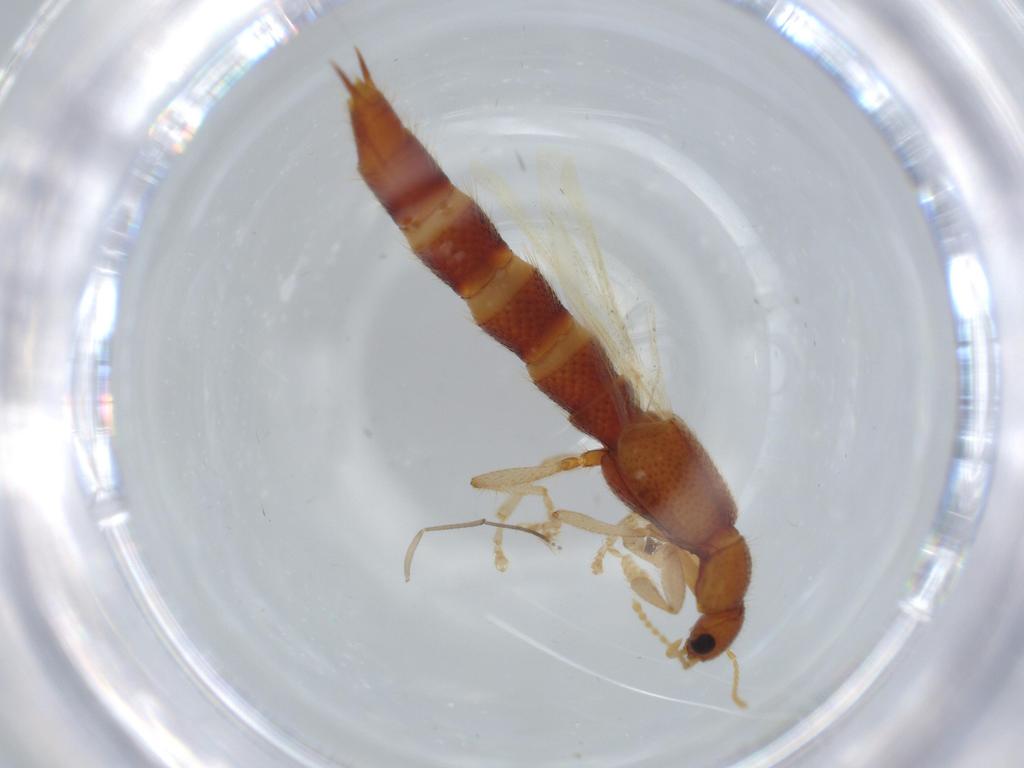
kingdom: Animalia
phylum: Arthropoda
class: Insecta
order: Coleoptera
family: Staphylinidae
